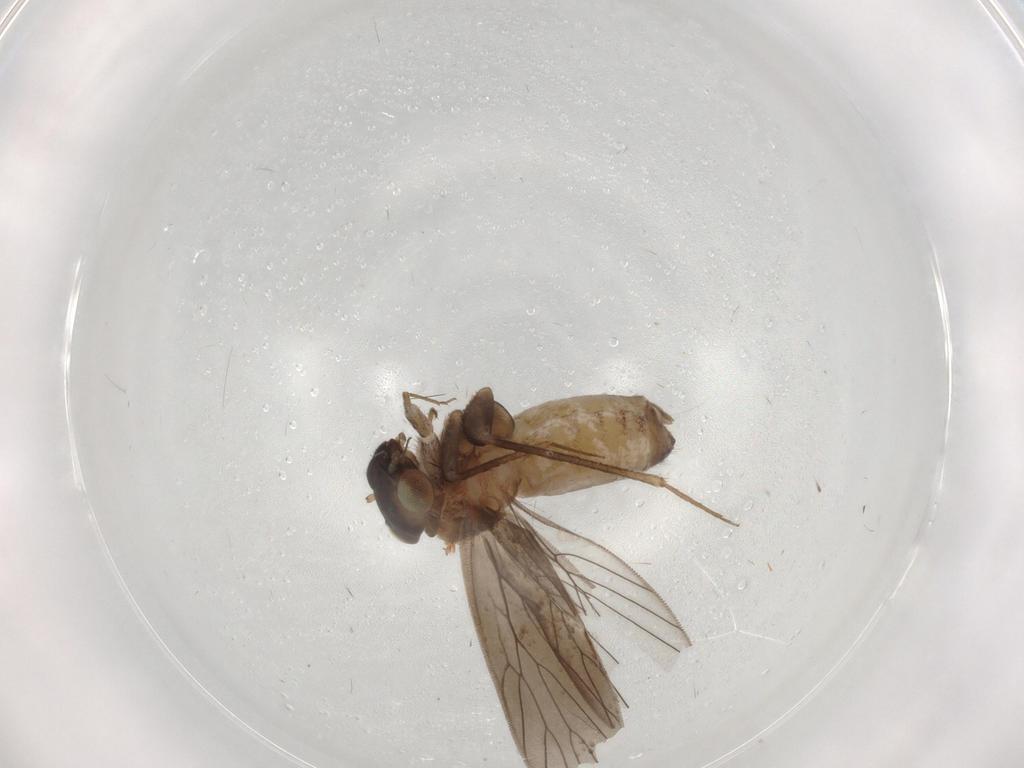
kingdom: Animalia
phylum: Arthropoda
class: Insecta
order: Psocodea
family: Lepidopsocidae
